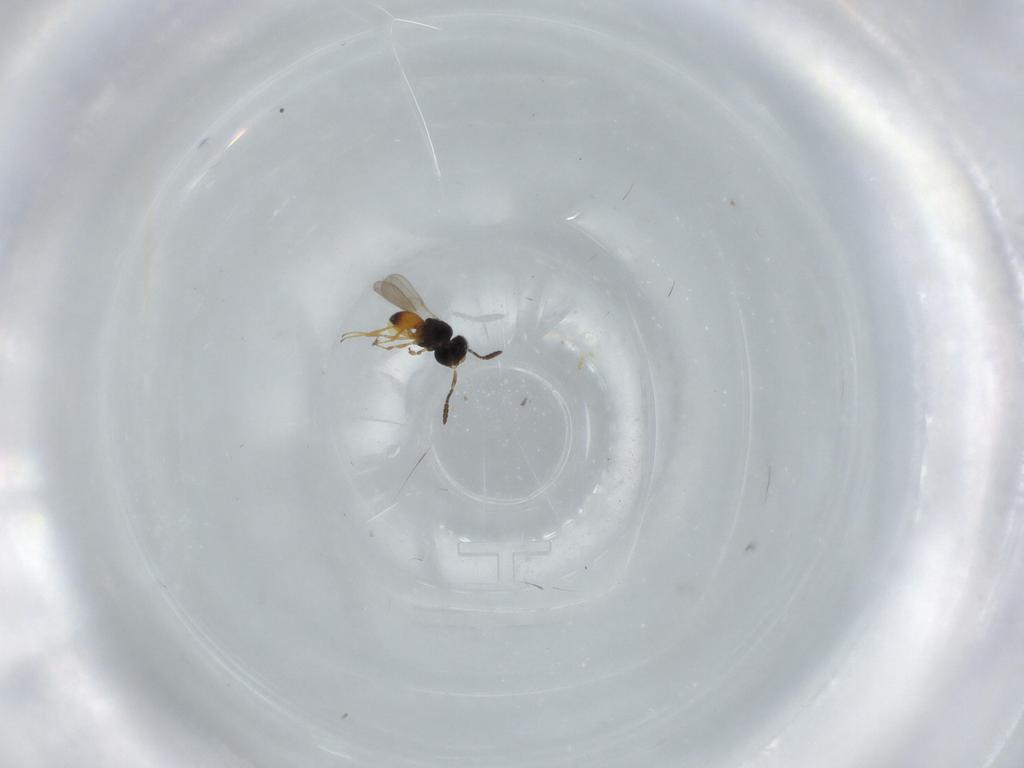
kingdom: Animalia
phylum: Arthropoda
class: Insecta
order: Hymenoptera
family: Scelionidae
